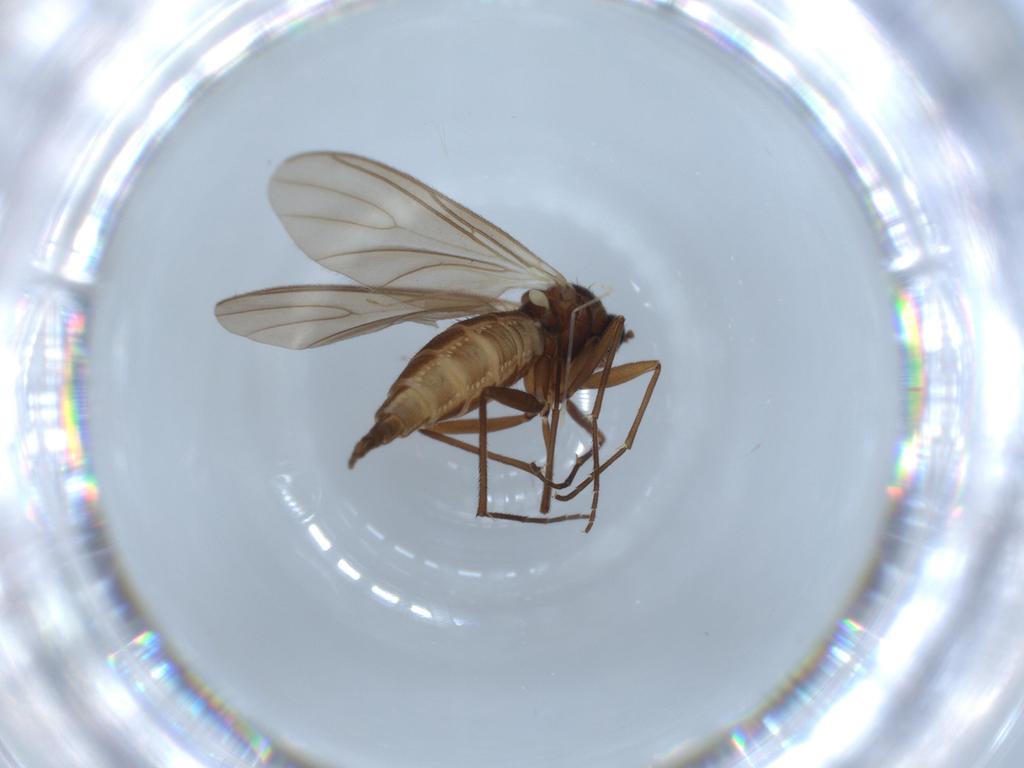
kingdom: Animalia
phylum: Arthropoda
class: Insecta
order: Diptera
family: Sciaridae
